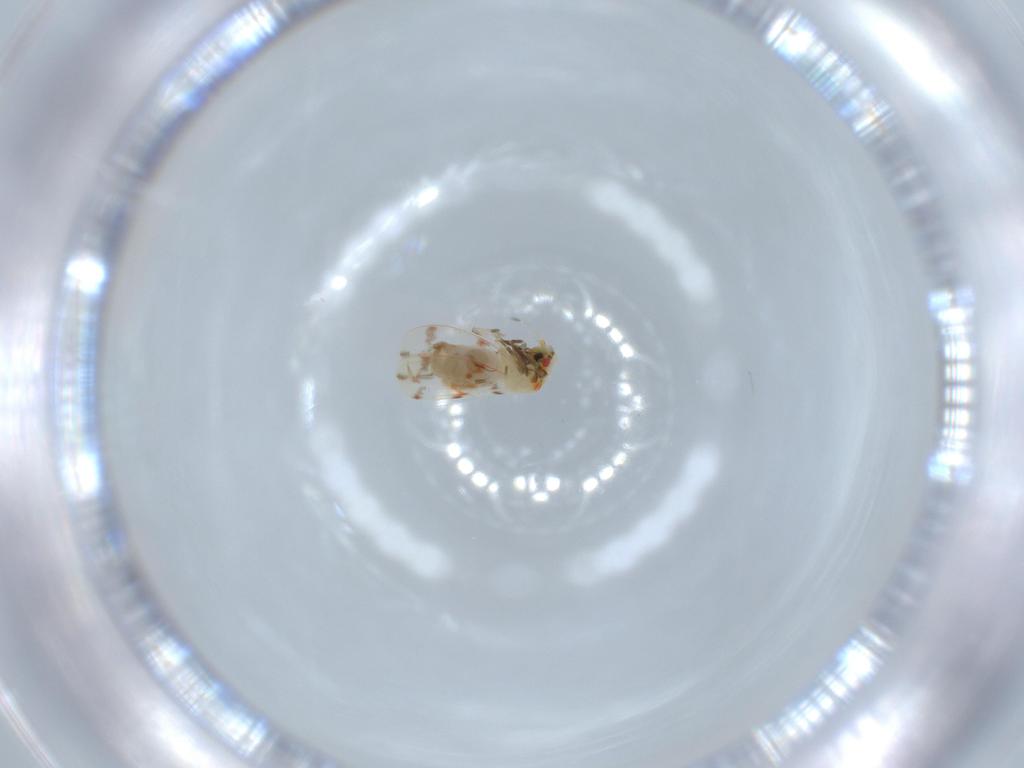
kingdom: Animalia
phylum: Arthropoda
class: Insecta
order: Hemiptera
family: Aleyrodidae
